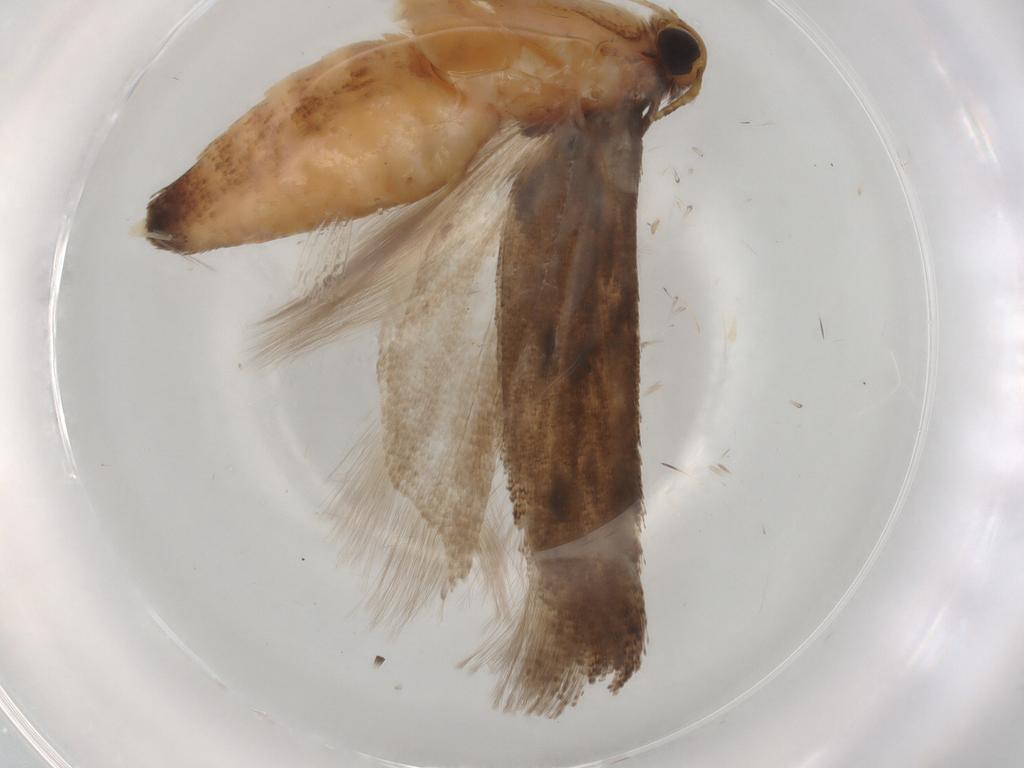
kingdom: Animalia
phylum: Arthropoda
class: Insecta
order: Lepidoptera
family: Gelechiidae
